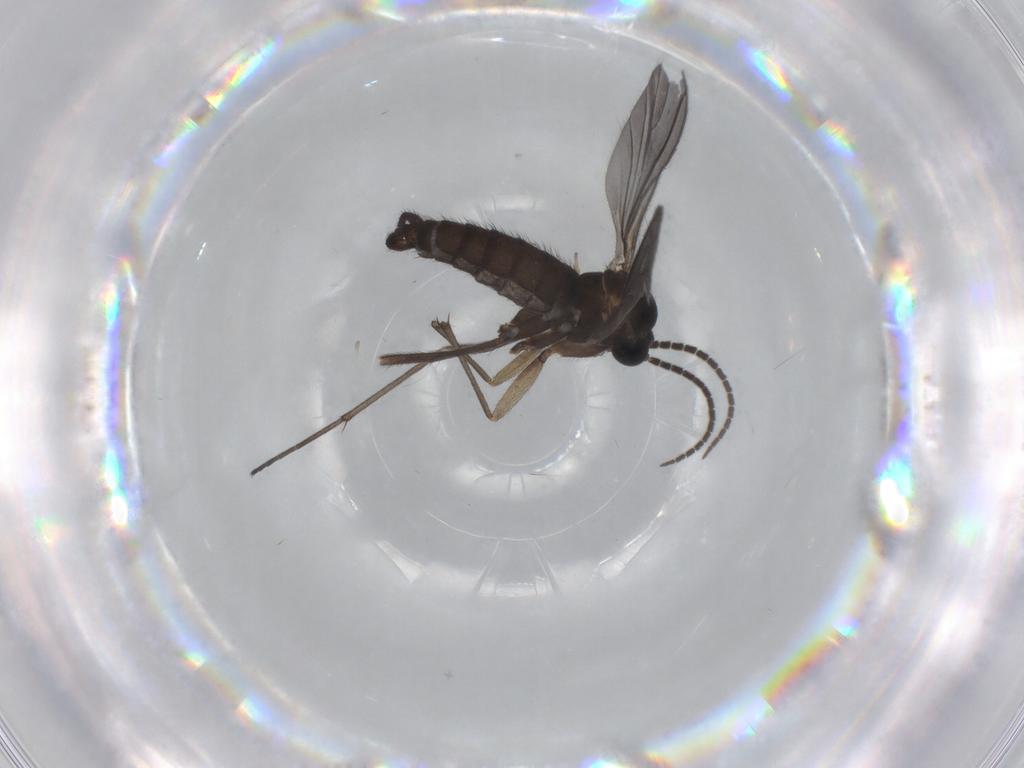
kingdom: Animalia
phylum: Arthropoda
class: Insecta
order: Diptera
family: Sciaridae
